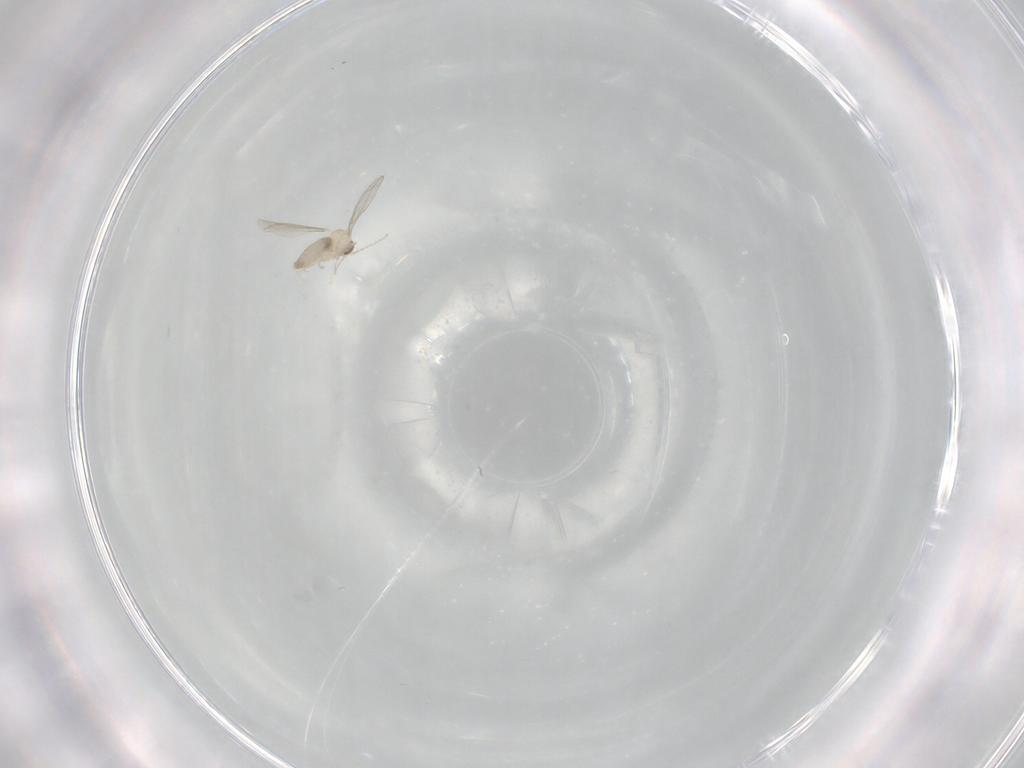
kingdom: Animalia
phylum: Arthropoda
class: Insecta
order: Diptera
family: Cecidomyiidae
